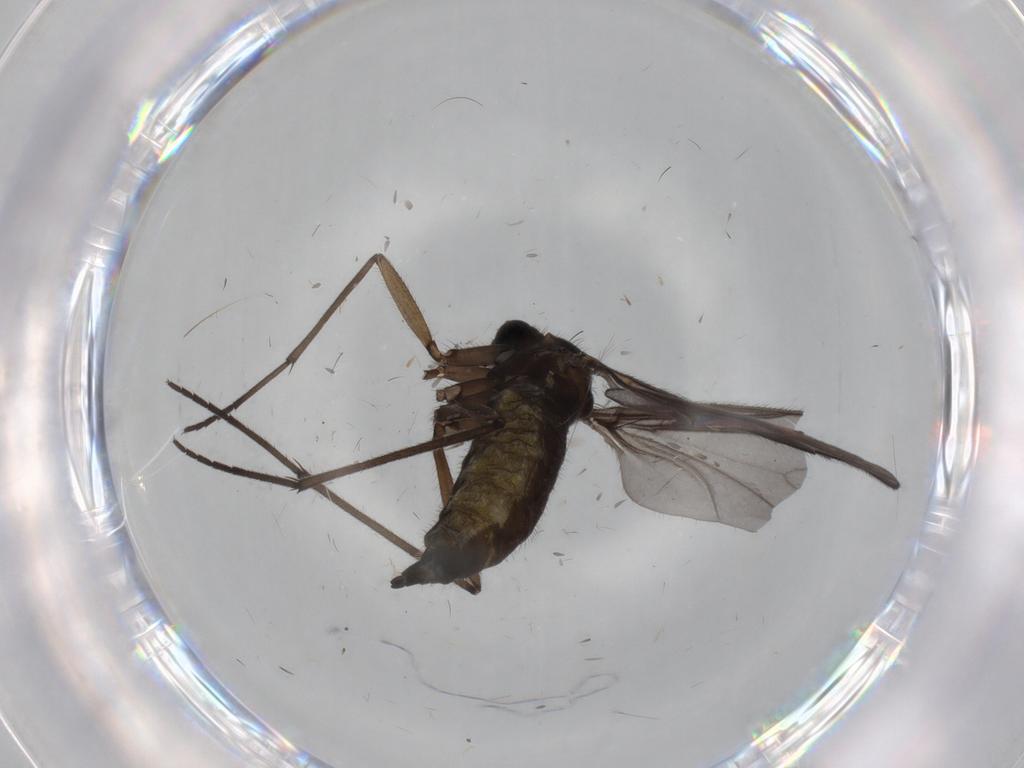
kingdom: Animalia
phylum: Arthropoda
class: Insecta
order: Diptera
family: Sciaridae
